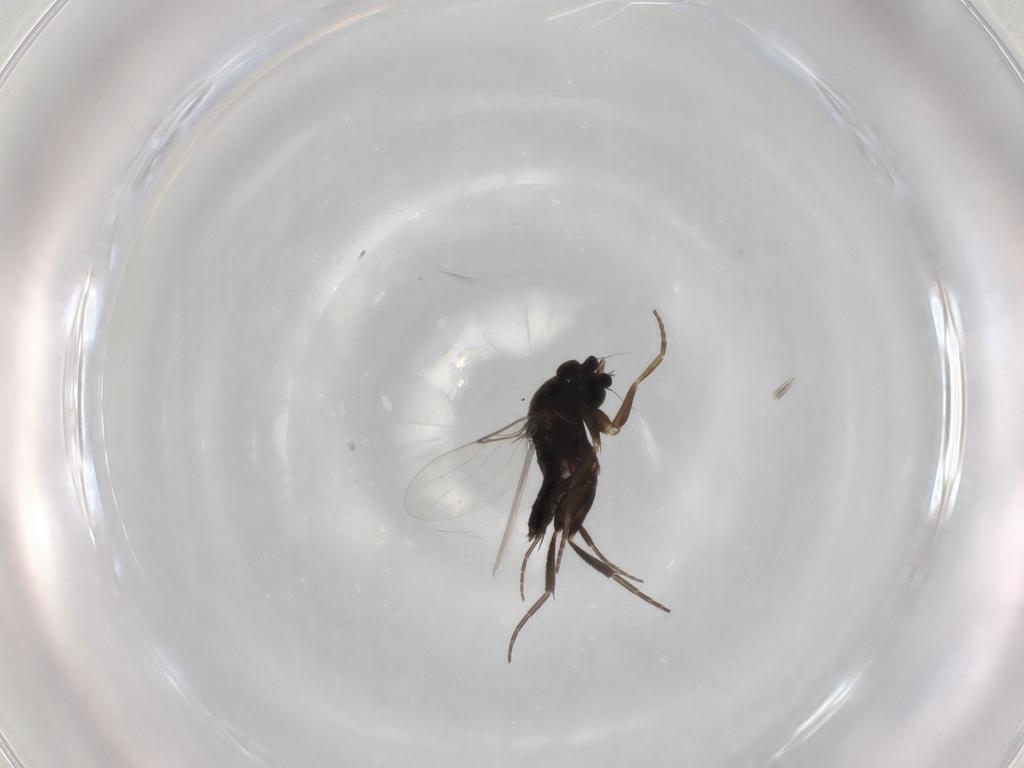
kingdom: Animalia
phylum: Arthropoda
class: Insecta
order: Diptera
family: Phoridae
